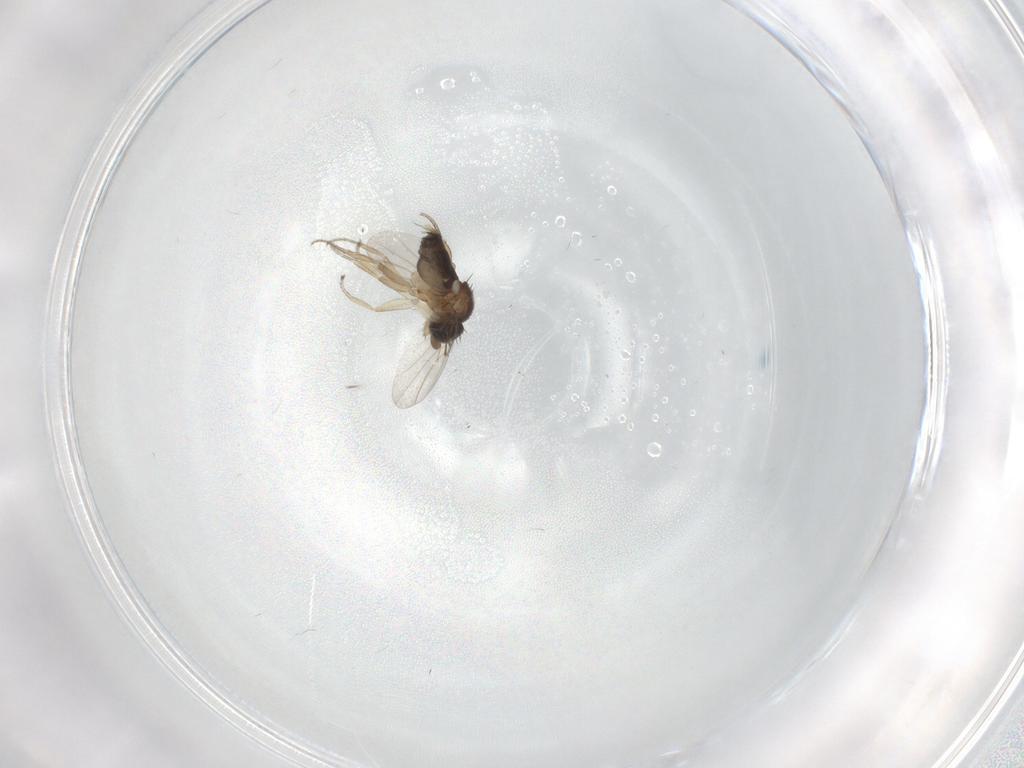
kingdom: Animalia
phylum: Arthropoda
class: Insecta
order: Diptera
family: Phoridae
